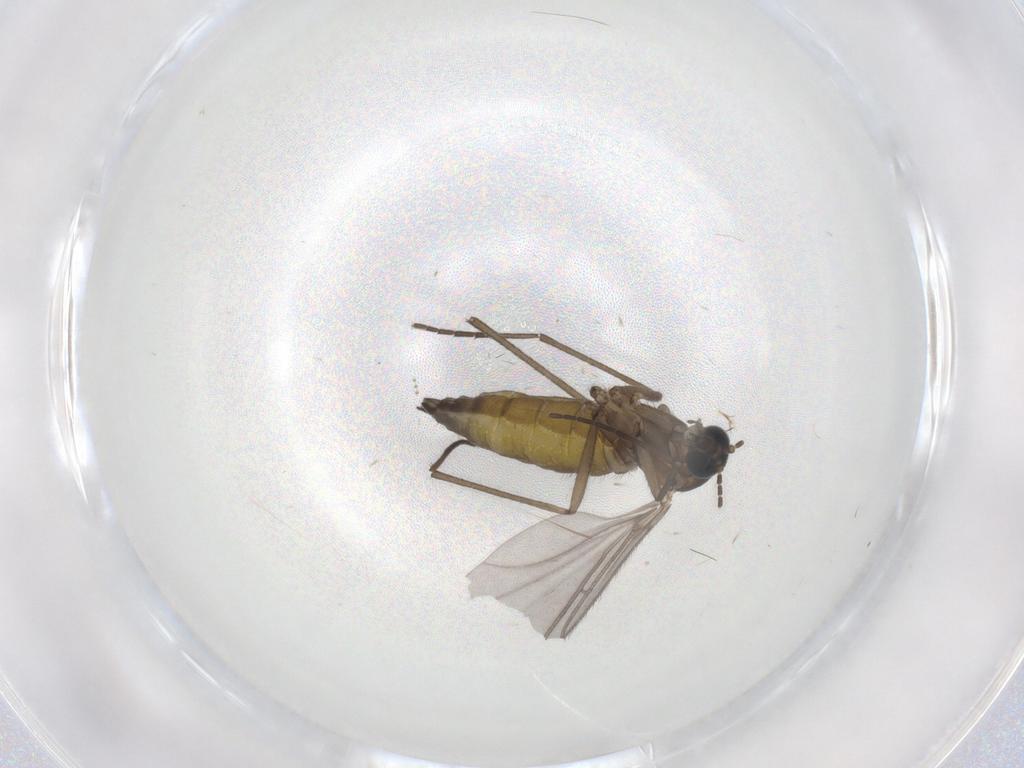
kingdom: Animalia
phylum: Arthropoda
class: Insecta
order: Diptera
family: Sciaridae
